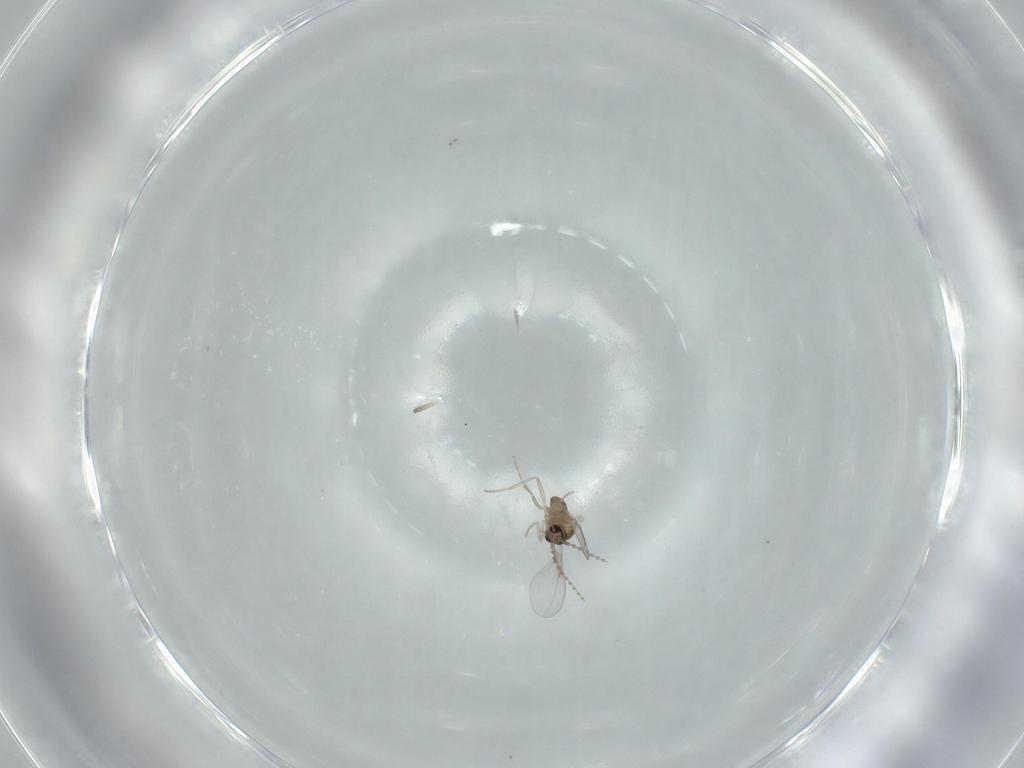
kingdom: Animalia
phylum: Arthropoda
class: Insecta
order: Diptera
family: Cecidomyiidae
